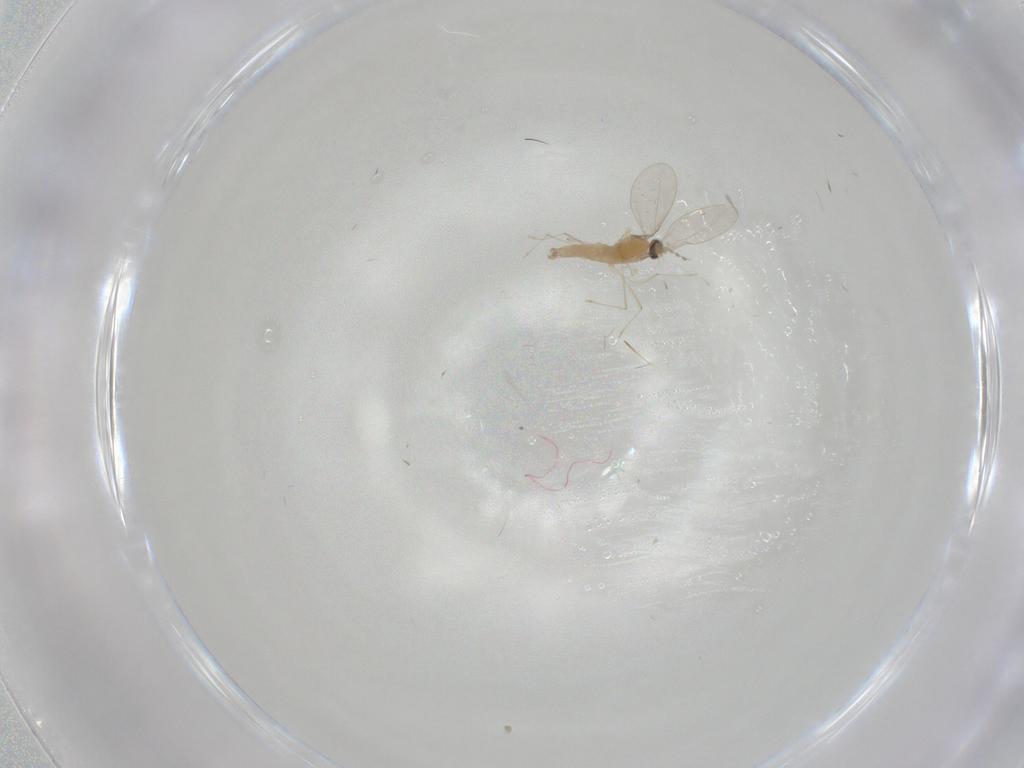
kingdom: Animalia
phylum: Arthropoda
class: Insecta
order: Diptera
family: Cecidomyiidae
